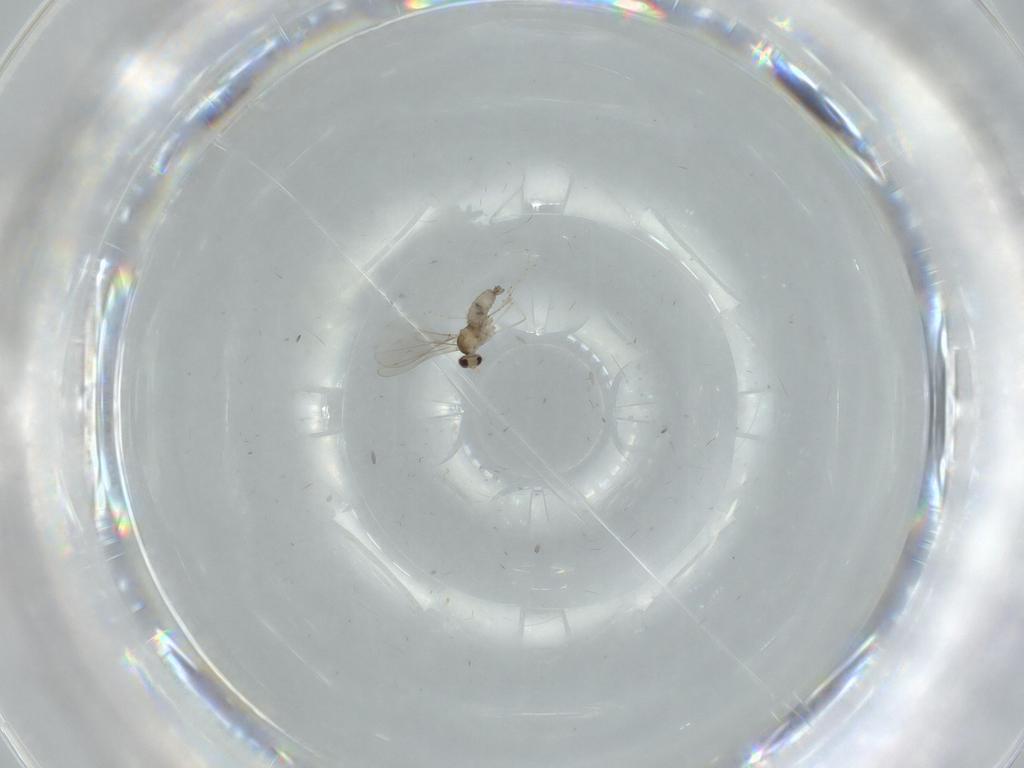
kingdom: Animalia
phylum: Arthropoda
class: Insecta
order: Diptera
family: Cecidomyiidae
